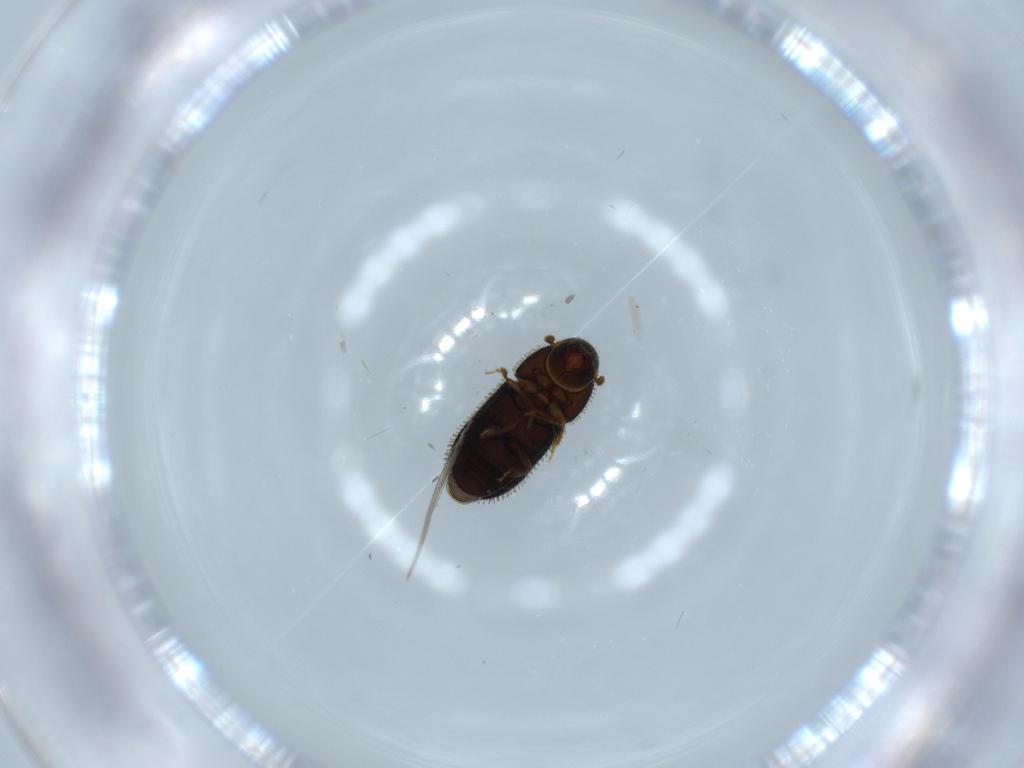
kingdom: Animalia
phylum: Arthropoda
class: Insecta
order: Coleoptera
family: Curculionidae
